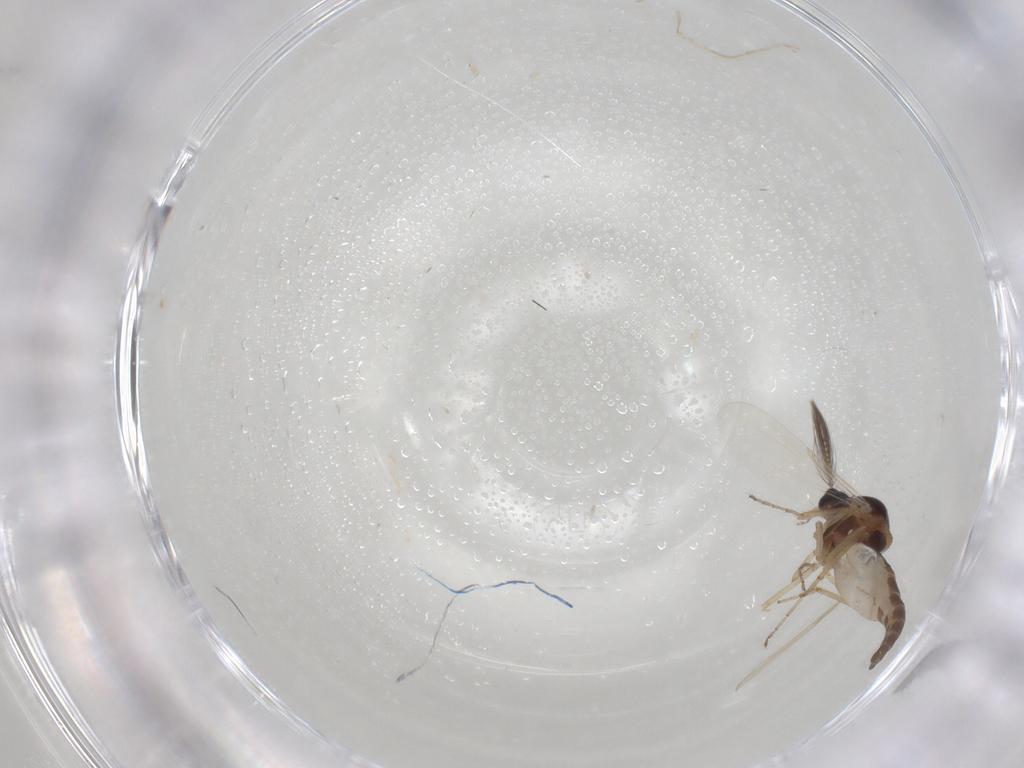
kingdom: Animalia
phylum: Arthropoda
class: Insecta
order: Diptera
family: Ceratopogonidae
